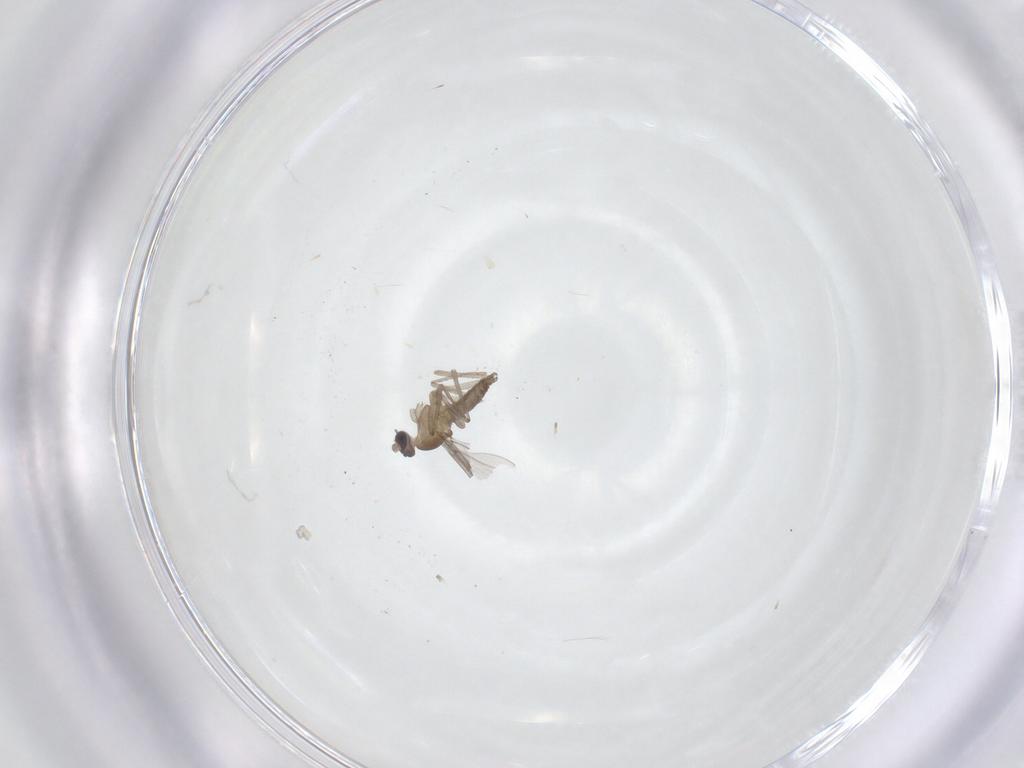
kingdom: Animalia
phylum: Arthropoda
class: Insecta
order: Diptera
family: Cecidomyiidae
